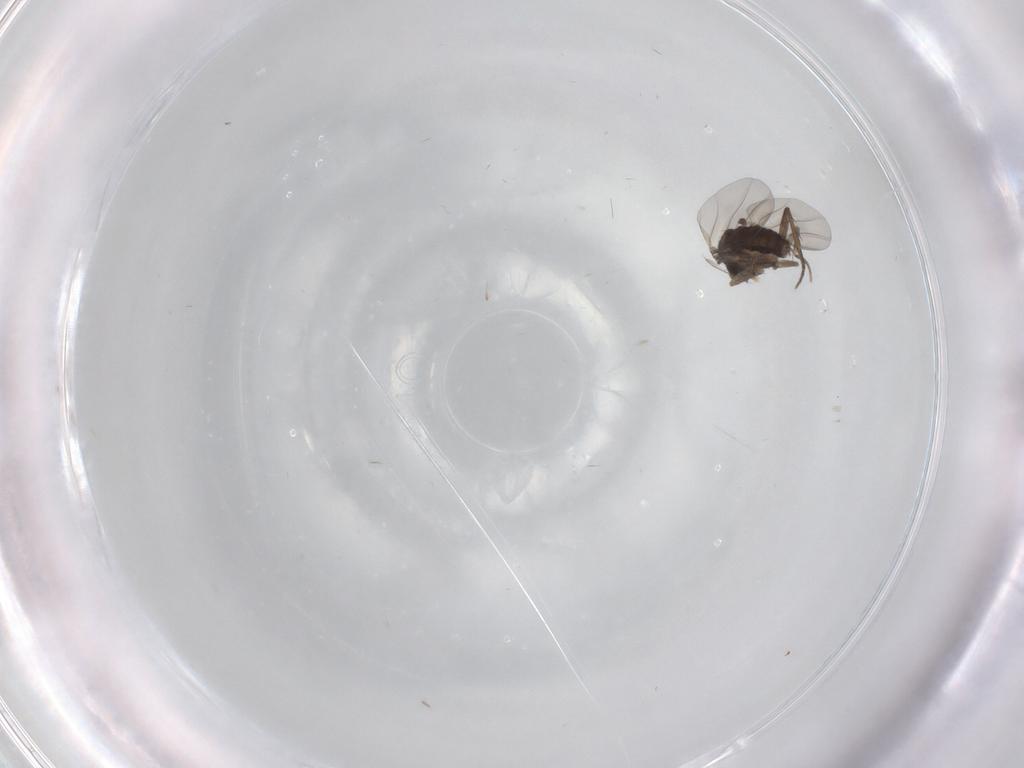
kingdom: Animalia
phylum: Arthropoda
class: Insecta
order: Diptera
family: Phoridae
